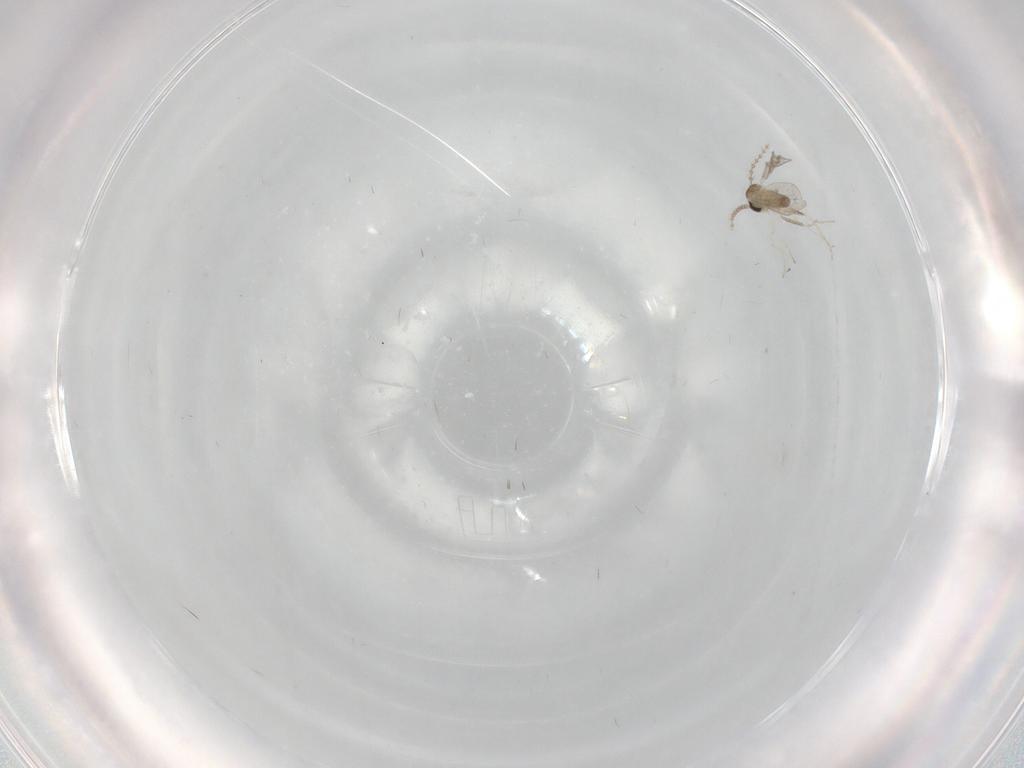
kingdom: Animalia
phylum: Arthropoda
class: Insecta
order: Diptera
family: Cecidomyiidae
